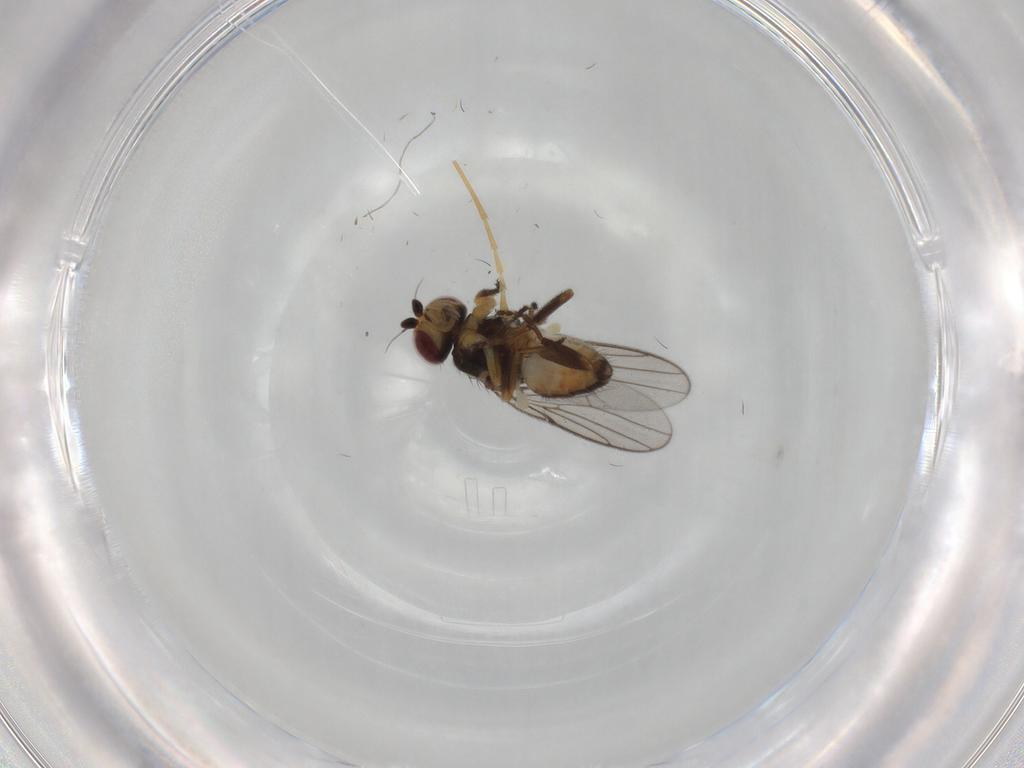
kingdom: Animalia
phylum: Arthropoda
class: Insecta
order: Diptera
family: Chloropidae
